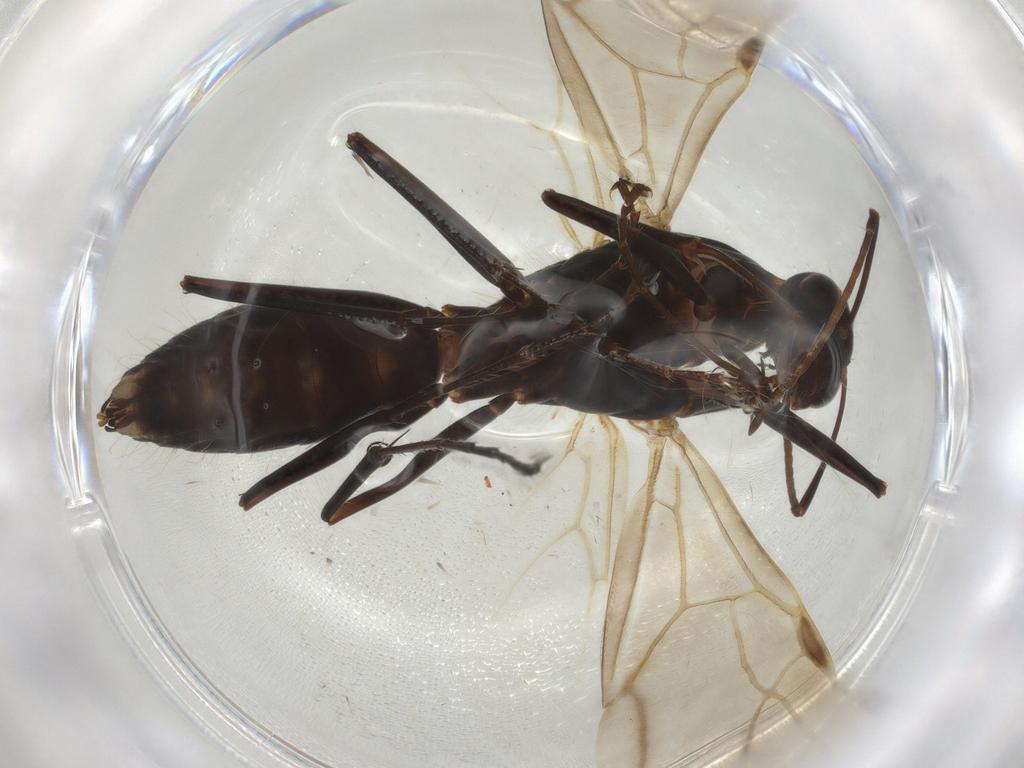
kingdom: Animalia
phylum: Arthropoda
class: Insecta
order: Hymenoptera
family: Formicidae
